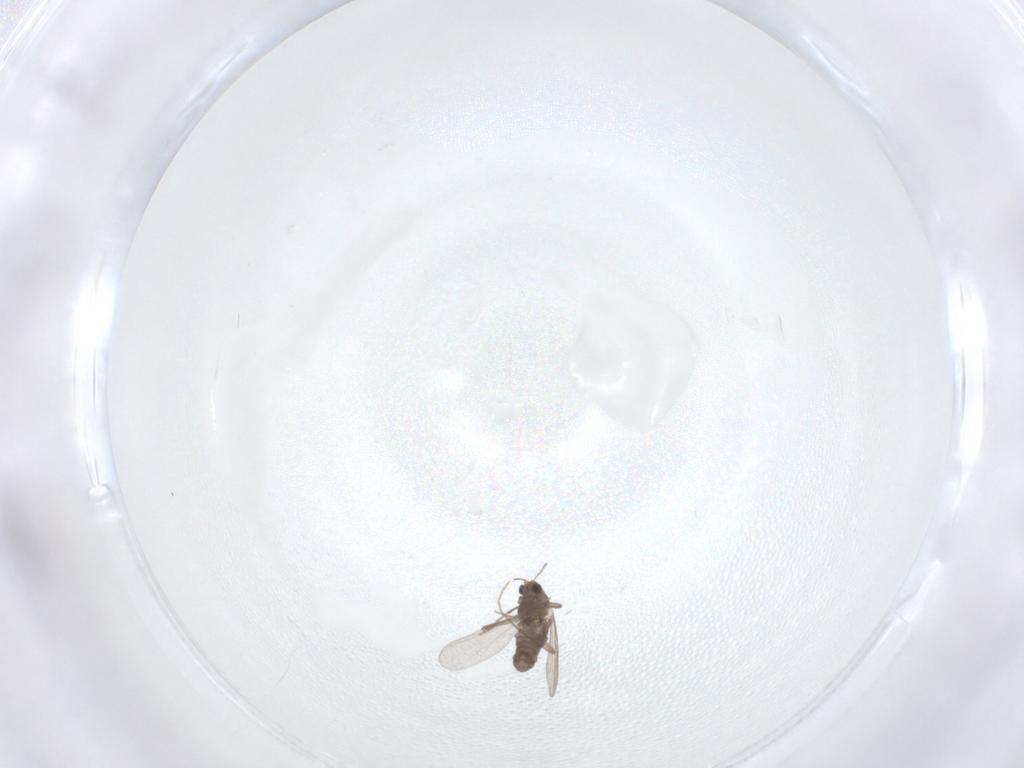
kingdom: Animalia
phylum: Arthropoda
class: Insecta
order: Diptera
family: Chironomidae
